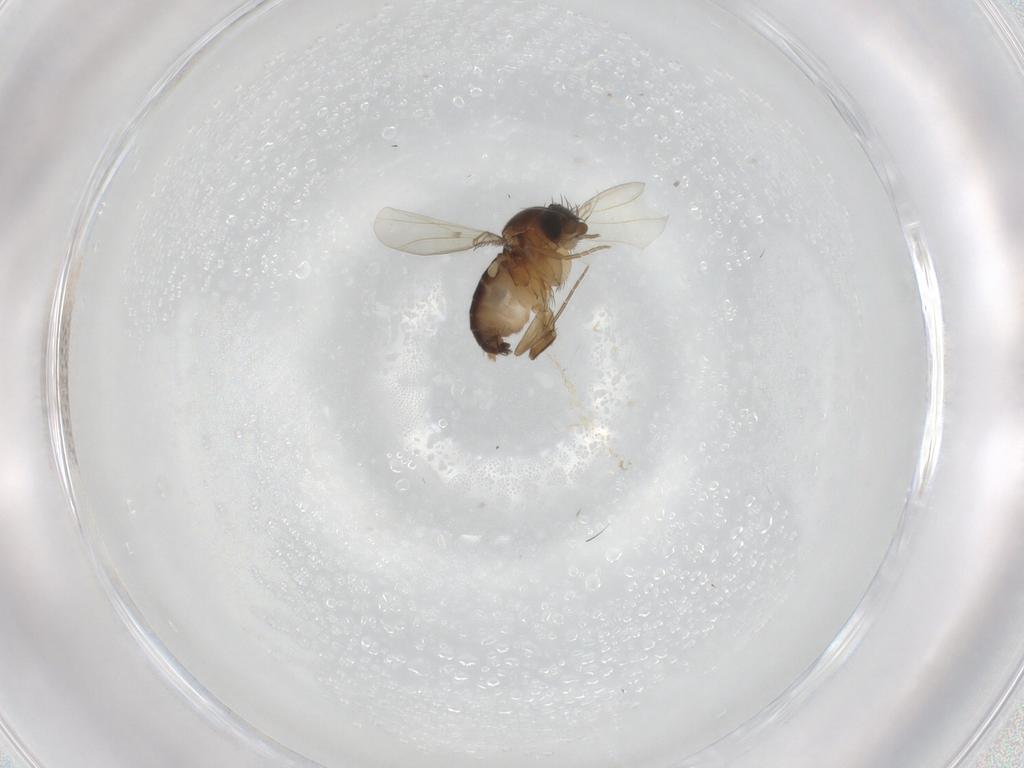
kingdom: Animalia
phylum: Arthropoda
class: Insecta
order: Diptera
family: Phoridae
